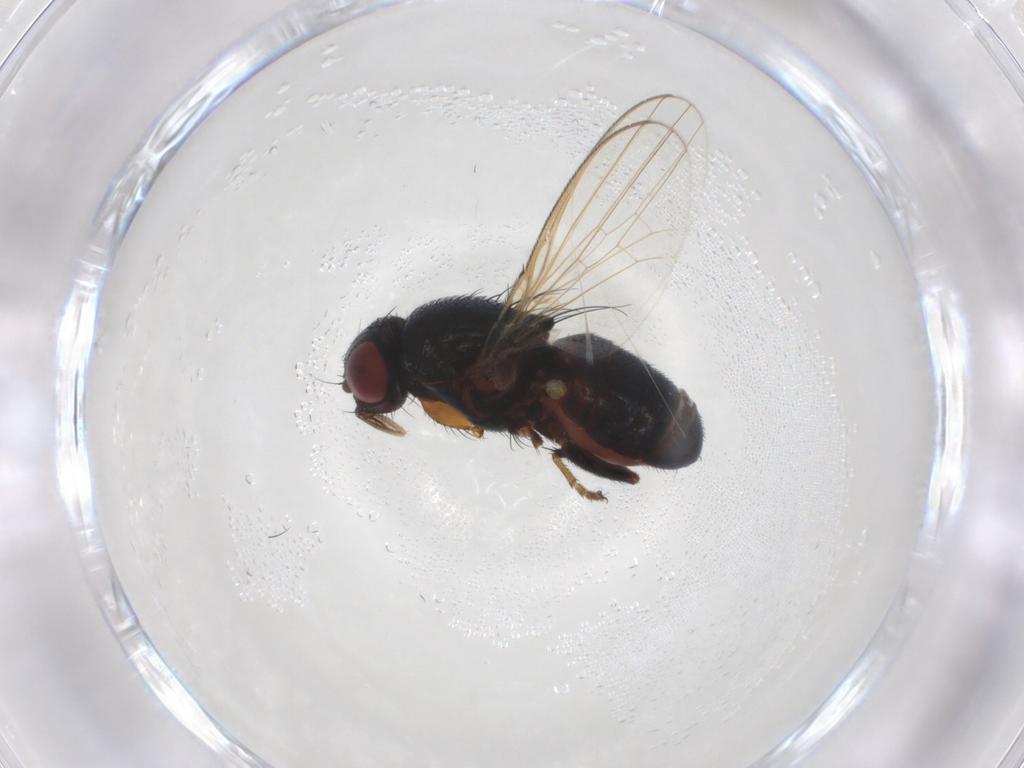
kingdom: Animalia
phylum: Arthropoda
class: Insecta
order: Diptera
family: Milichiidae
